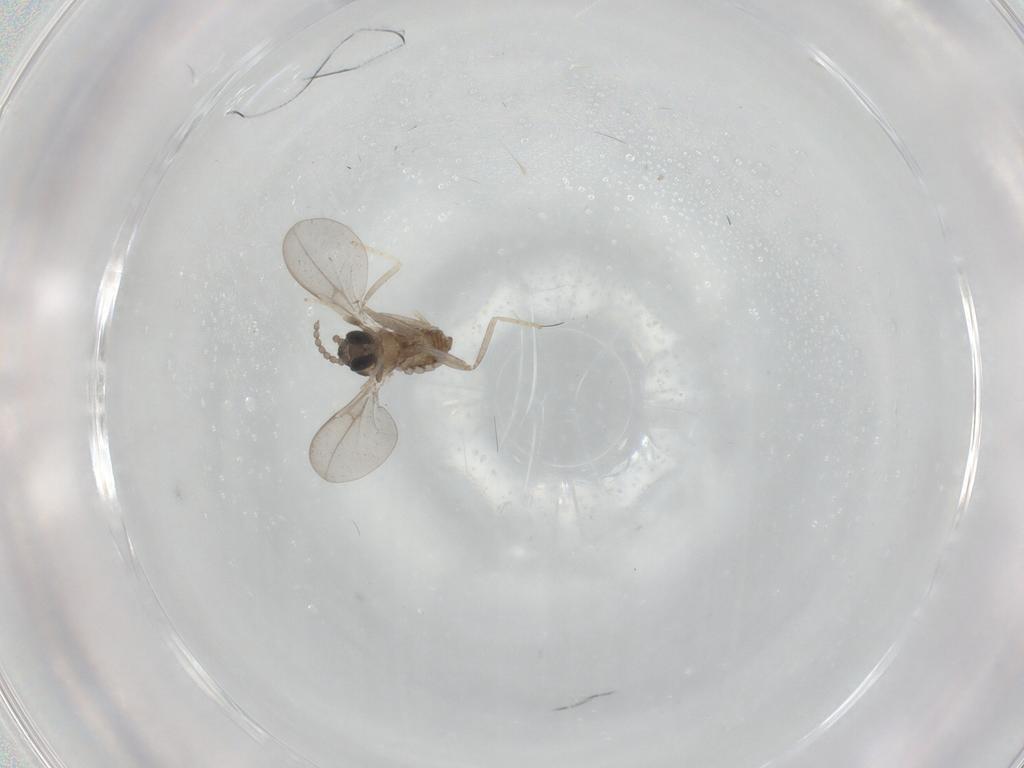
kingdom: Animalia
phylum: Arthropoda
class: Insecta
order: Diptera
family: Cecidomyiidae
